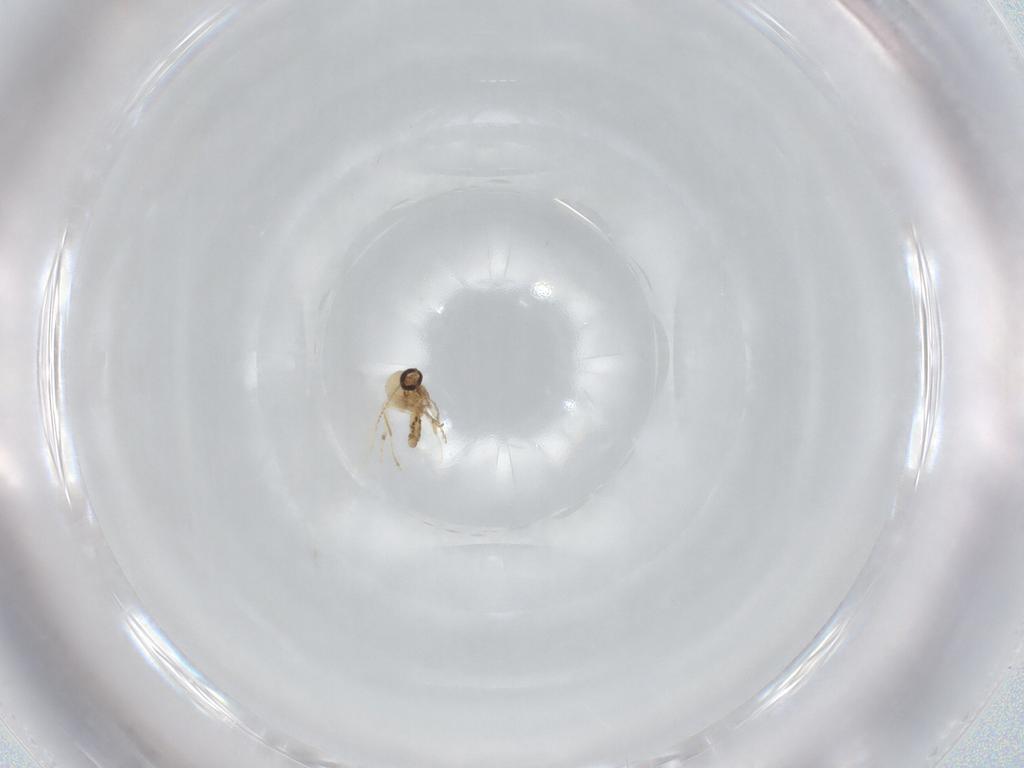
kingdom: Animalia
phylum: Arthropoda
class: Insecta
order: Diptera
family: Ceratopogonidae
